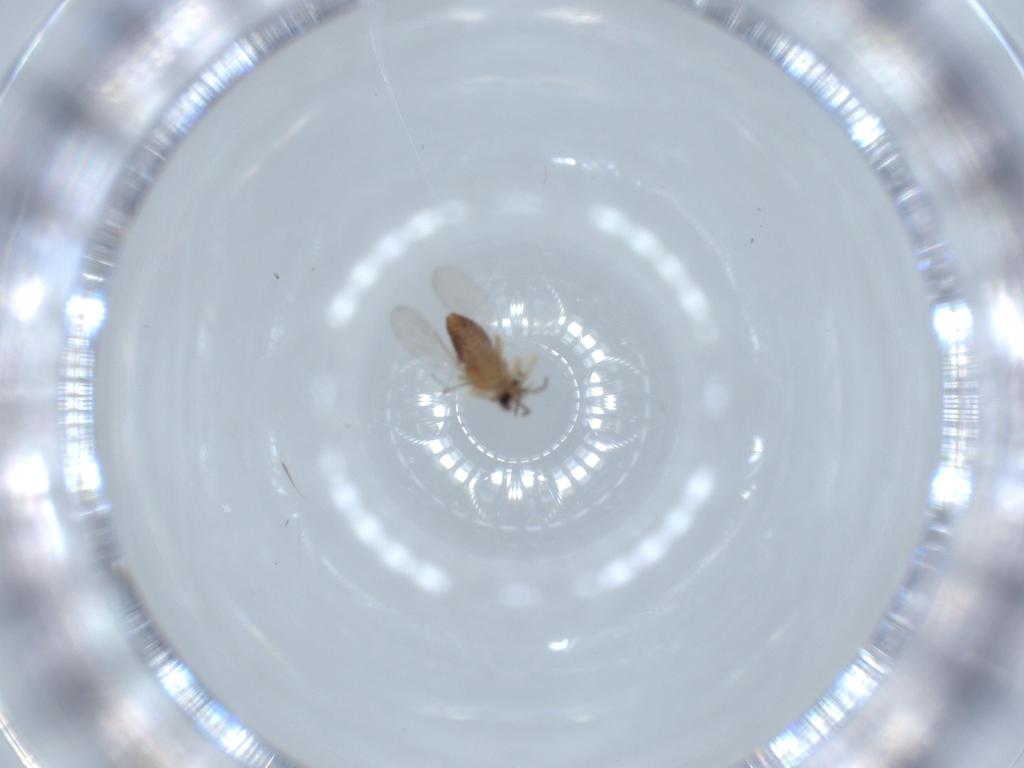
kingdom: Animalia
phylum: Arthropoda
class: Insecta
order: Diptera
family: Ceratopogonidae
